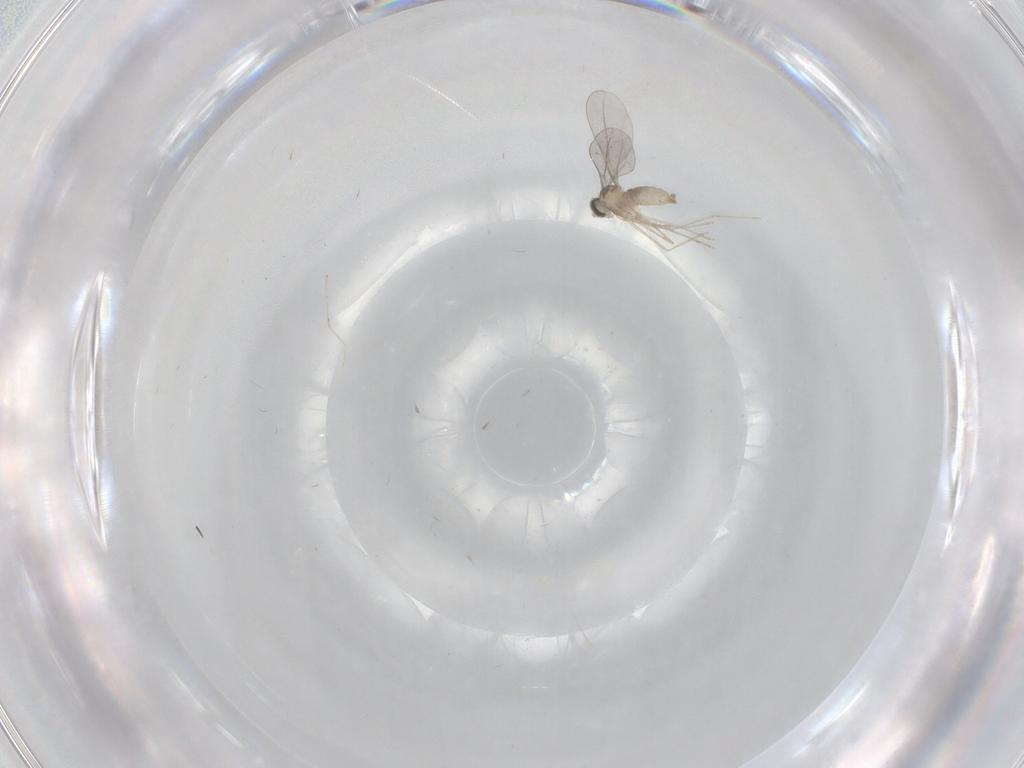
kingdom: Animalia
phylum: Arthropoda
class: Insecta
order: Diptera
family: Cecidomyiidae
